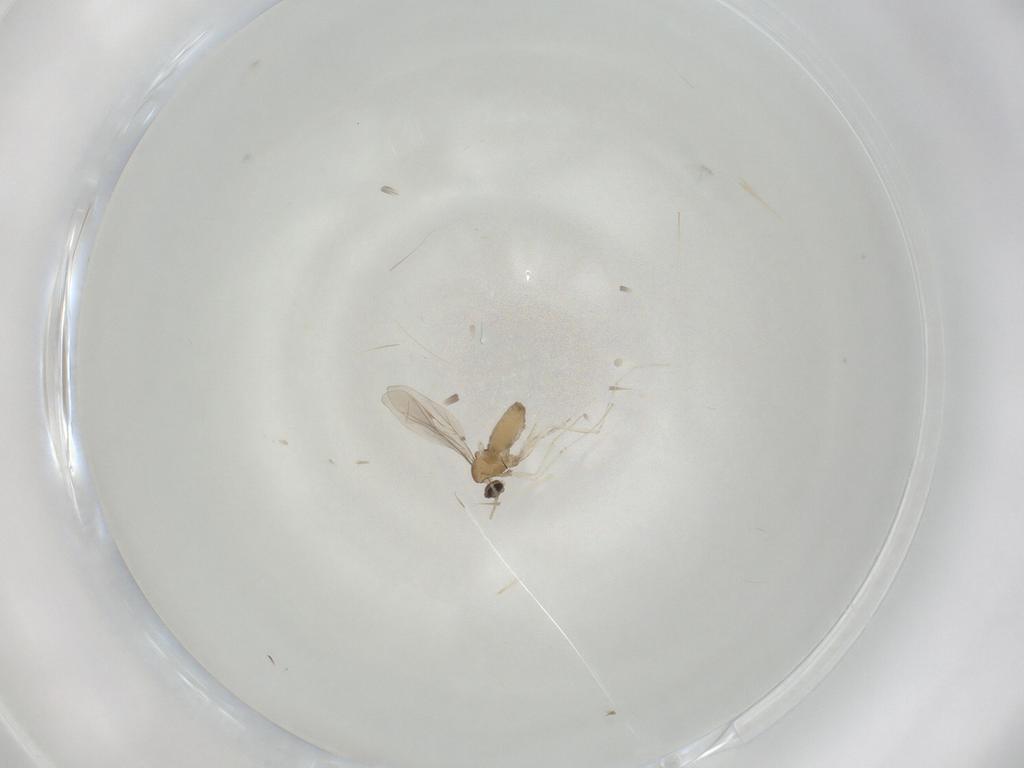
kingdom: Animalia
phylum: Arthropoda
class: Insecta
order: Diptera
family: Cecidomyiidae
